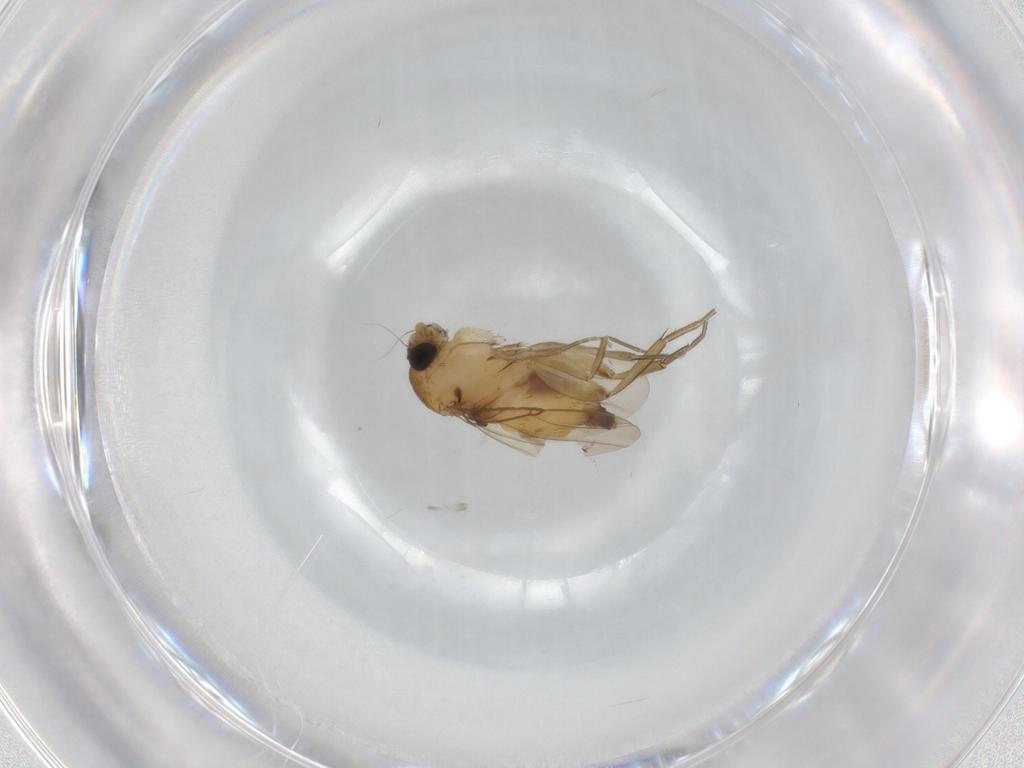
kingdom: Animalia
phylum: Arthropoda
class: Insecta
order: Diptera
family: Phoridae
